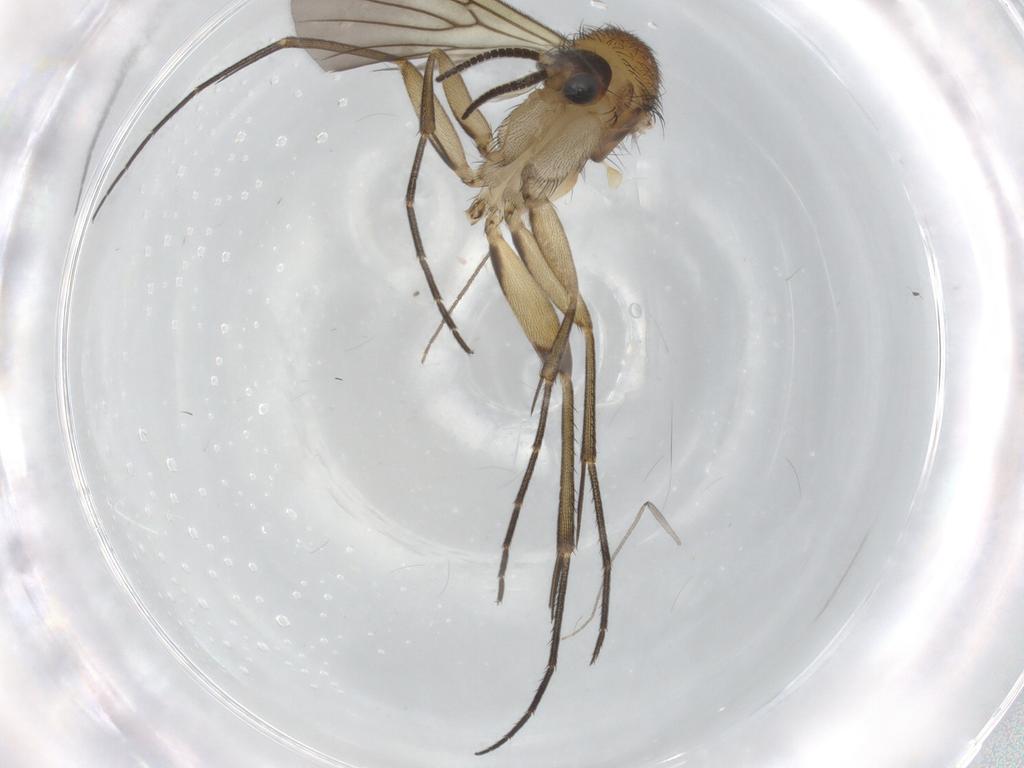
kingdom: Animalia
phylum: Arthropoda
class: Insecta
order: Diptera
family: Mycetophilidae
